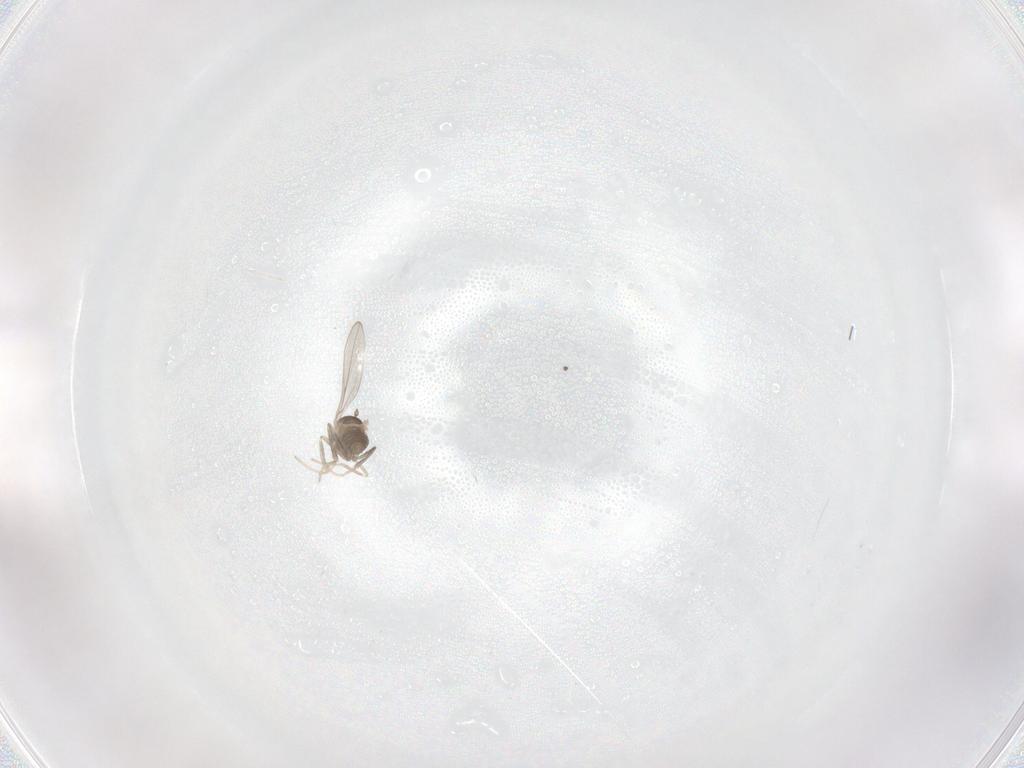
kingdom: Animalia
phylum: Arthropoda
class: Insecta
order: Diptera
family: Cecidomyiidae
